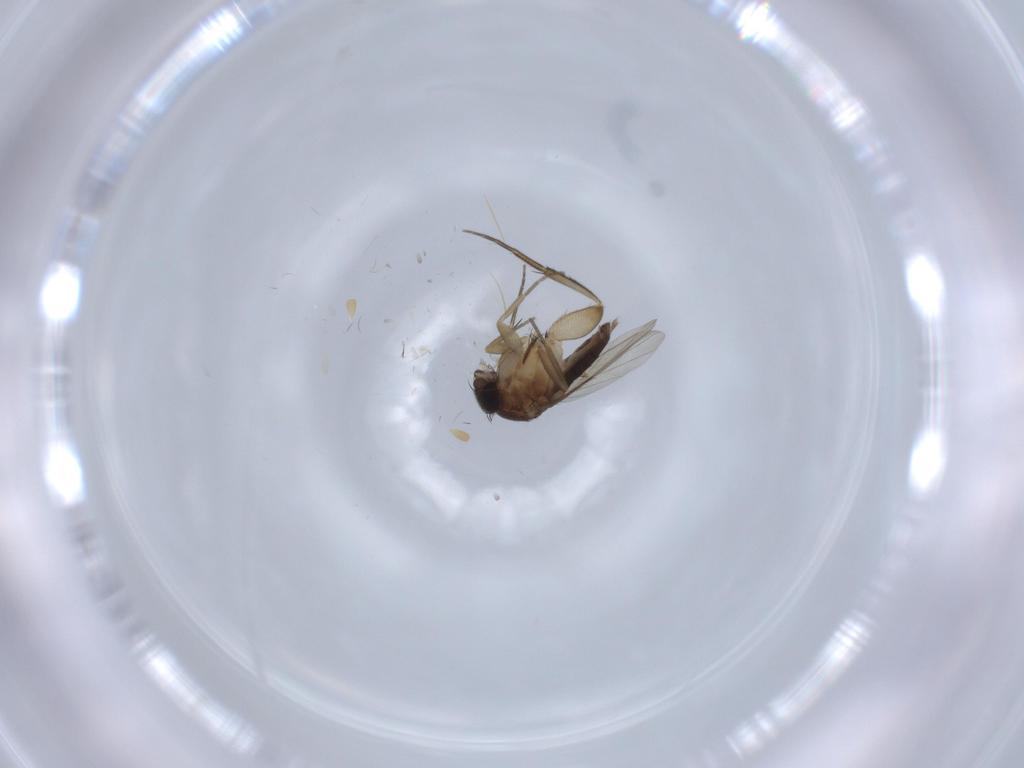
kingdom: Animalia
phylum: Arthropoda
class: Insecta
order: Diptera
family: Phoridae
